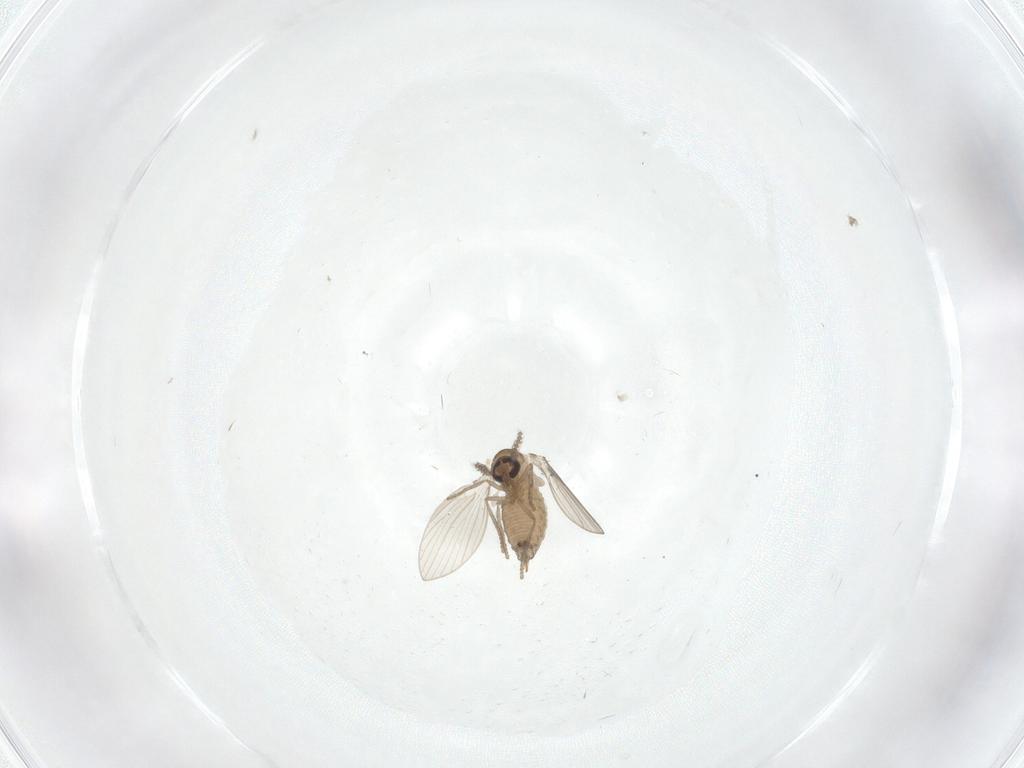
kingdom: Animalia
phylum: Arthropoda
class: Insecta
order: Diptera
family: Psychodidae
